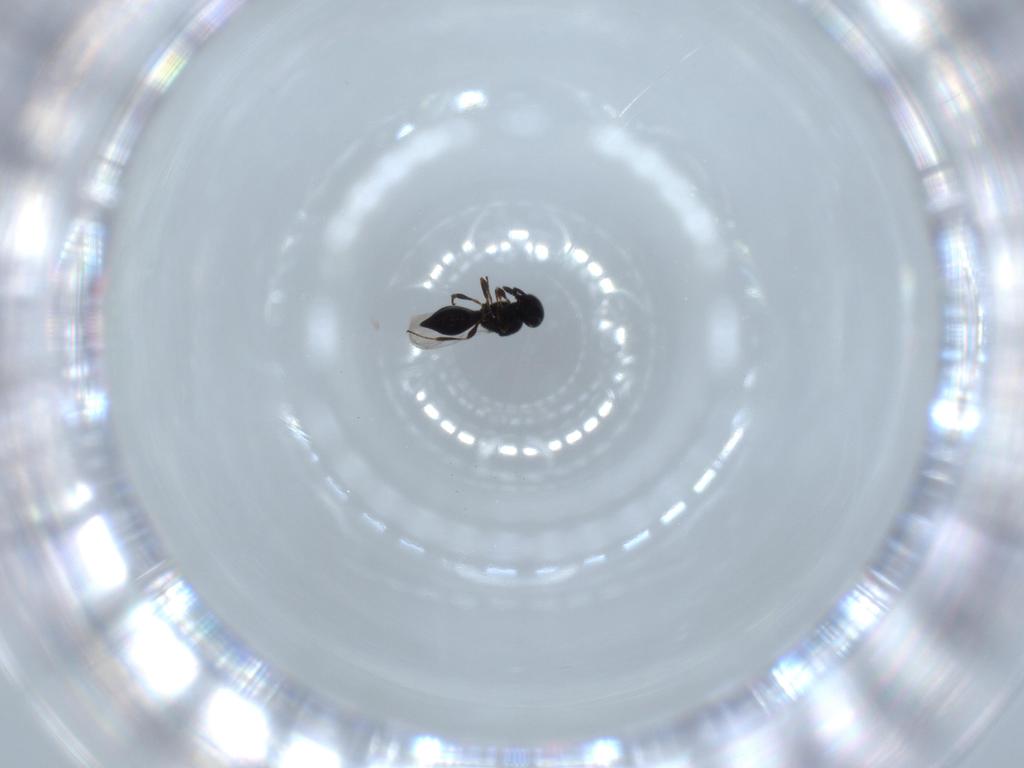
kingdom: Animalia
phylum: Arthropoda
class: Insecta
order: Hymenoptera
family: Platygastridae
